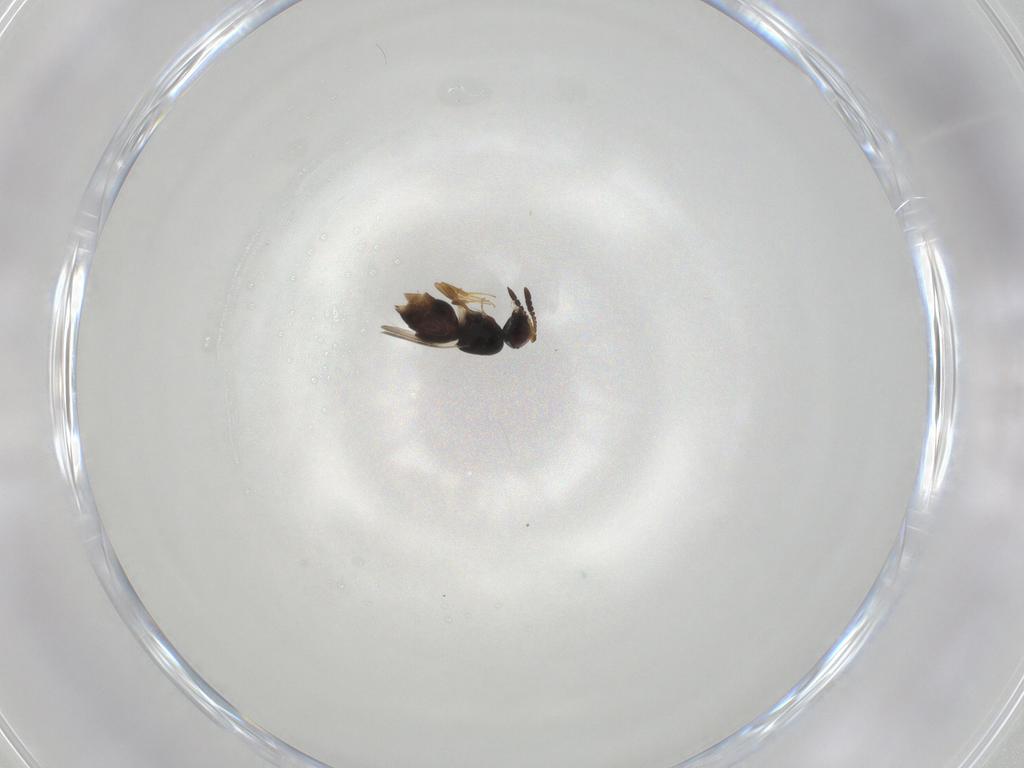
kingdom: Animalia
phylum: Arthropoda
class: Insecta
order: Hymenoptera
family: Ceraphronidae
